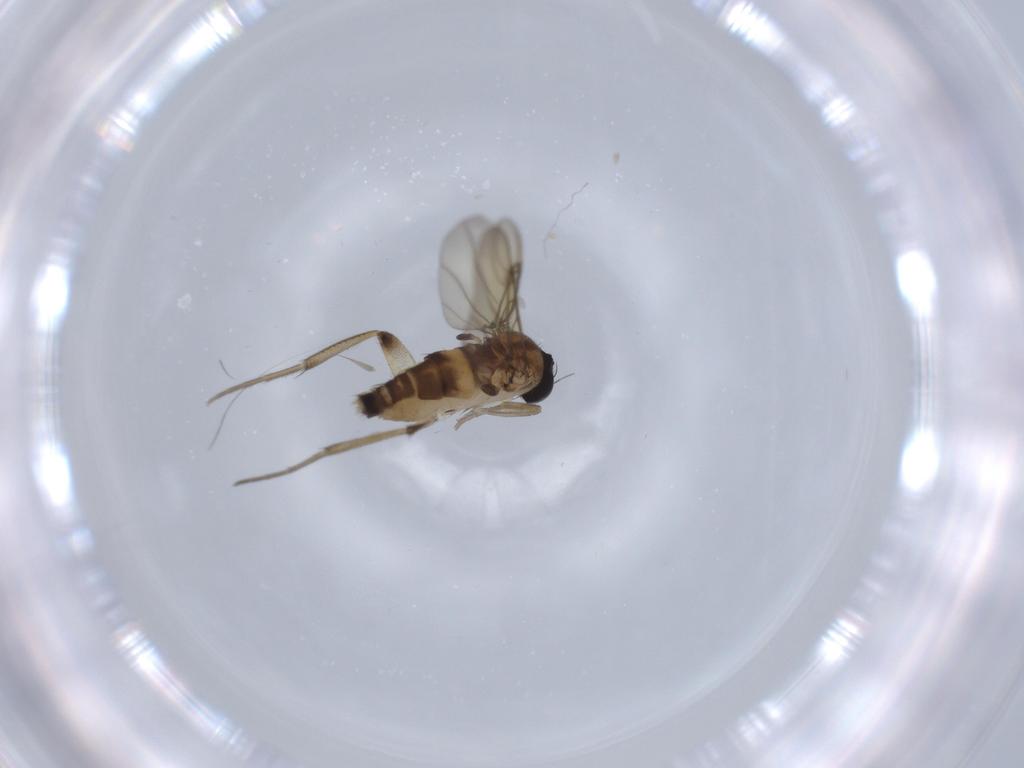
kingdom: Animalia
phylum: Arthropoda
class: Insecta
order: Diptera
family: Phoridae
